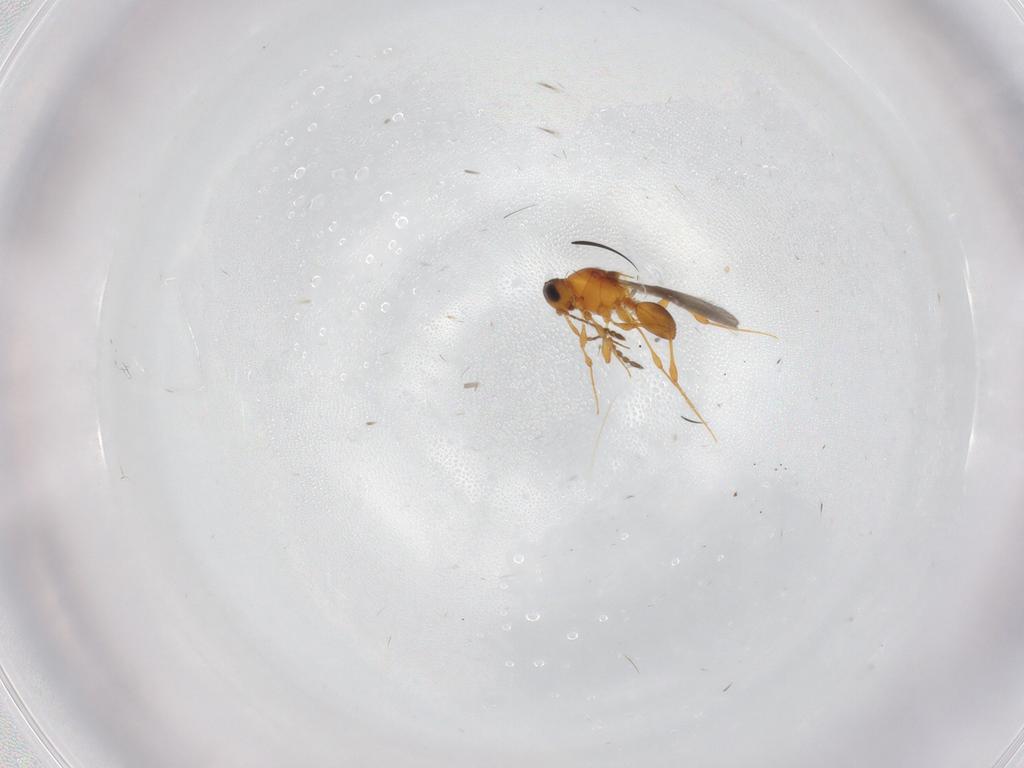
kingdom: Animalia
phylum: Arthropoda
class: Insecta
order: Hymenoptera
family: Platygastridae
